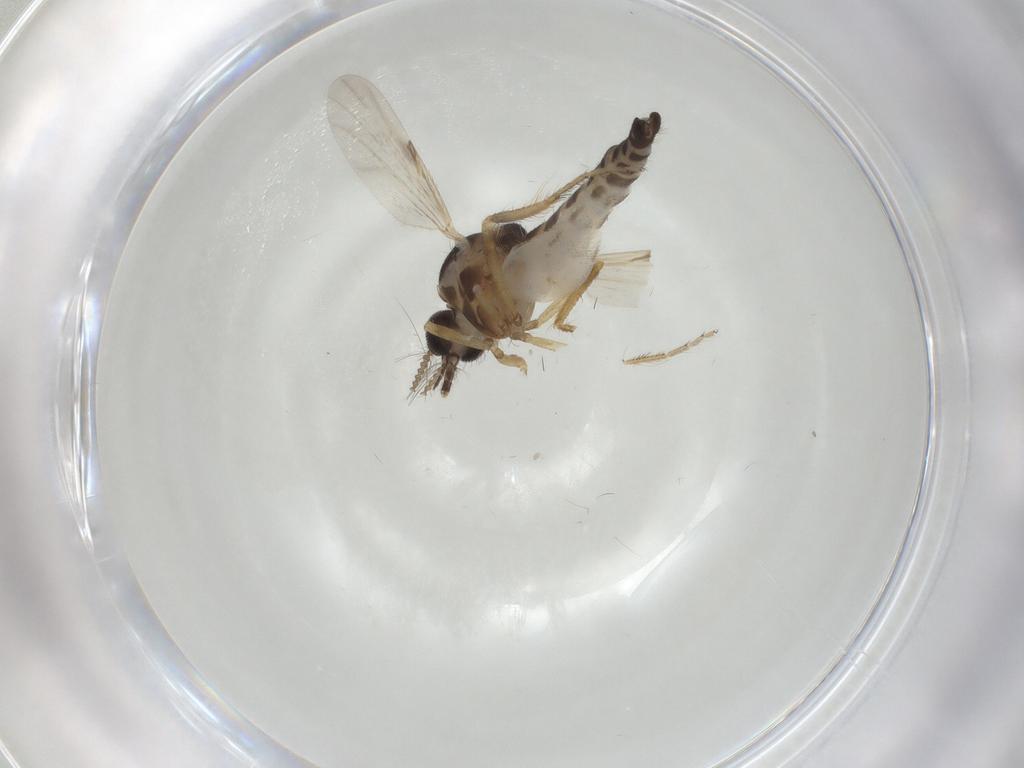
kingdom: Animalia
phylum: Arthropoda
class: Insecta
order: Diptera
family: Ceratopogonidae
